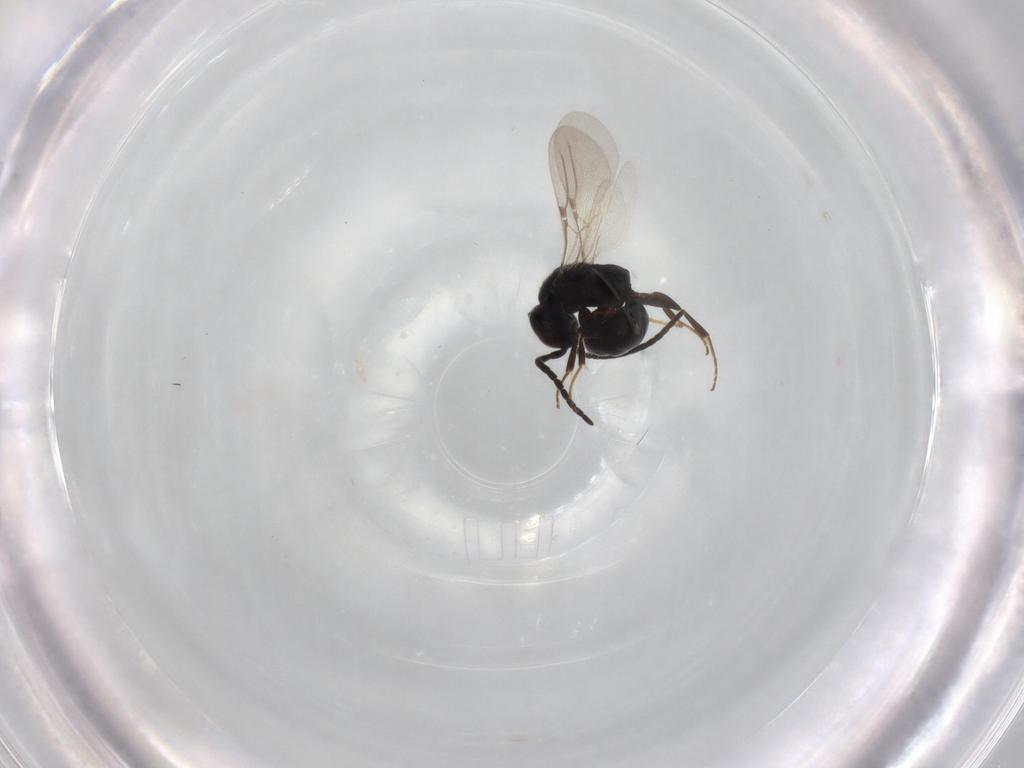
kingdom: Animalia
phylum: Arthropoda
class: Insecta
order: Hymenoptera
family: Bethylidae
